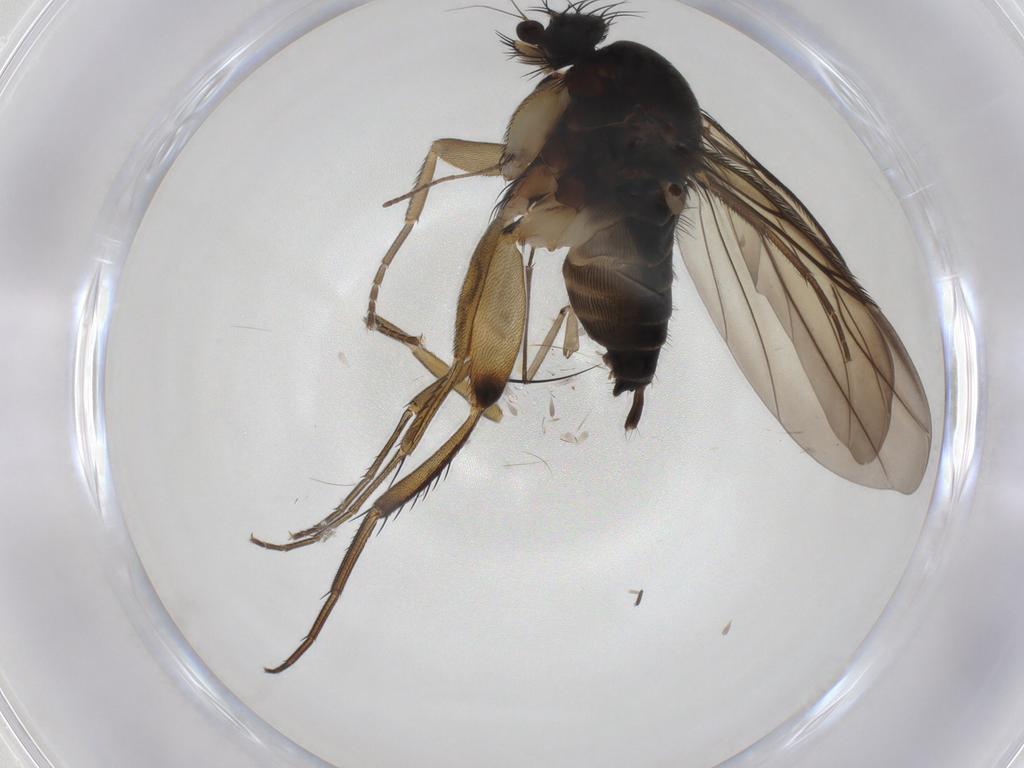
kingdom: Animalia
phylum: Arthropoda
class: Insecta
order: Diptera
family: Phoridae
